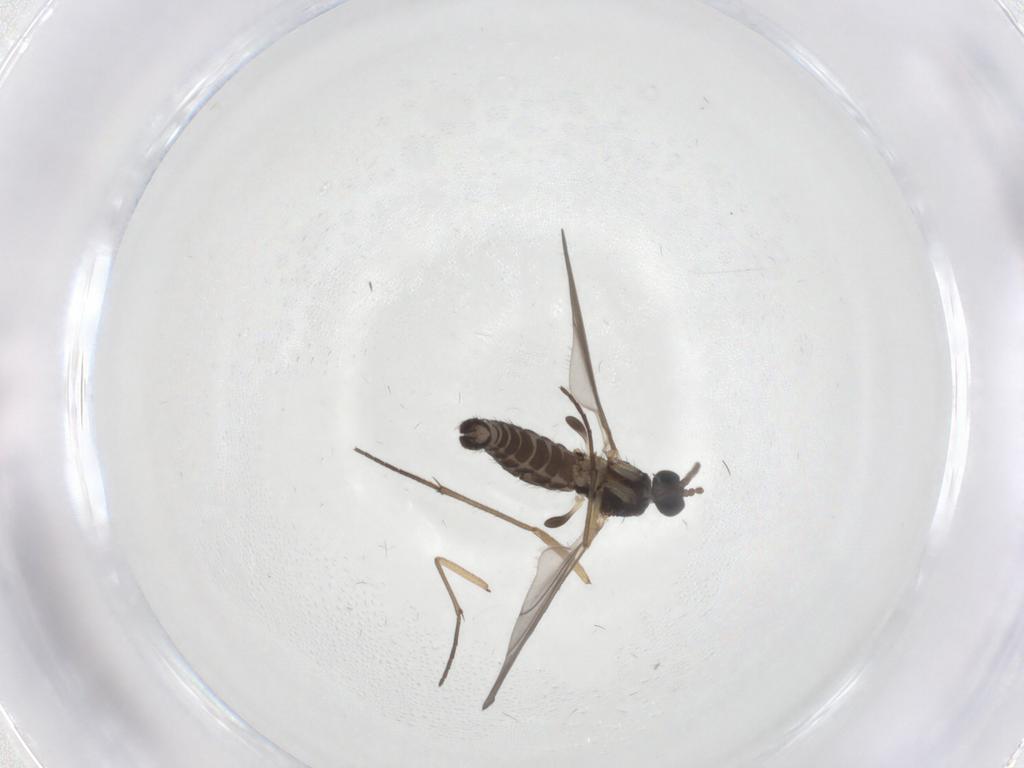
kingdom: Animalia
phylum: Arthropoda
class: Insecta
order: Diptera
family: Sciaridae
